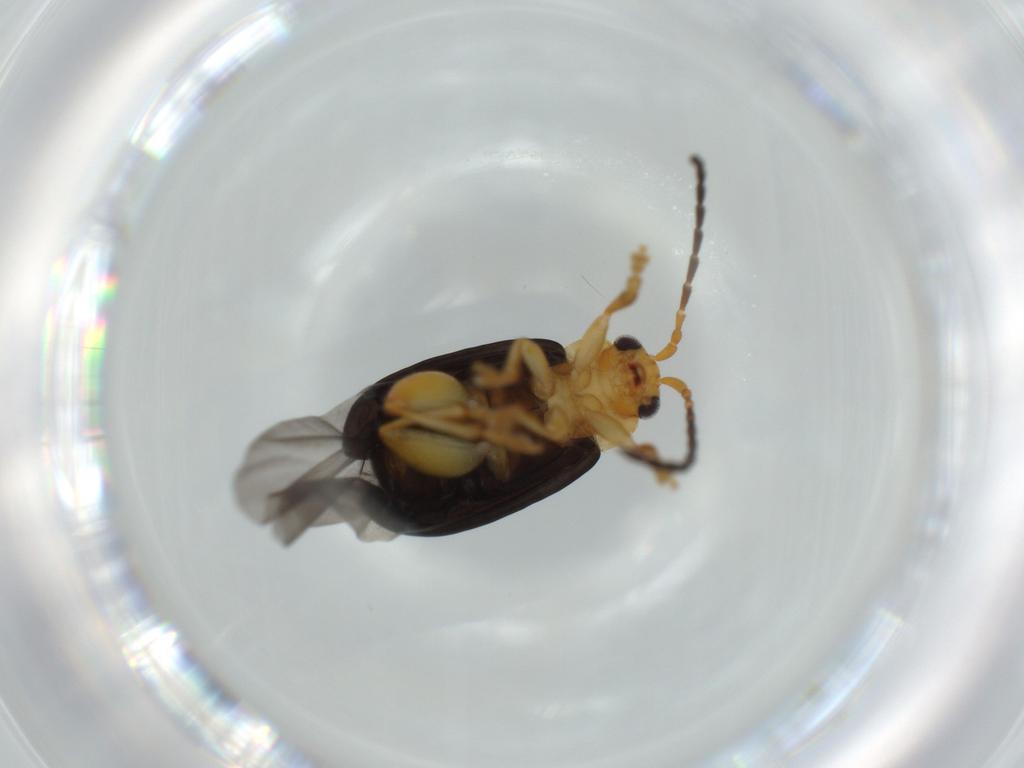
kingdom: Animalia
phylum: Arthropoda
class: Insecta
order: Coleoptera
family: Chrysomelidae
